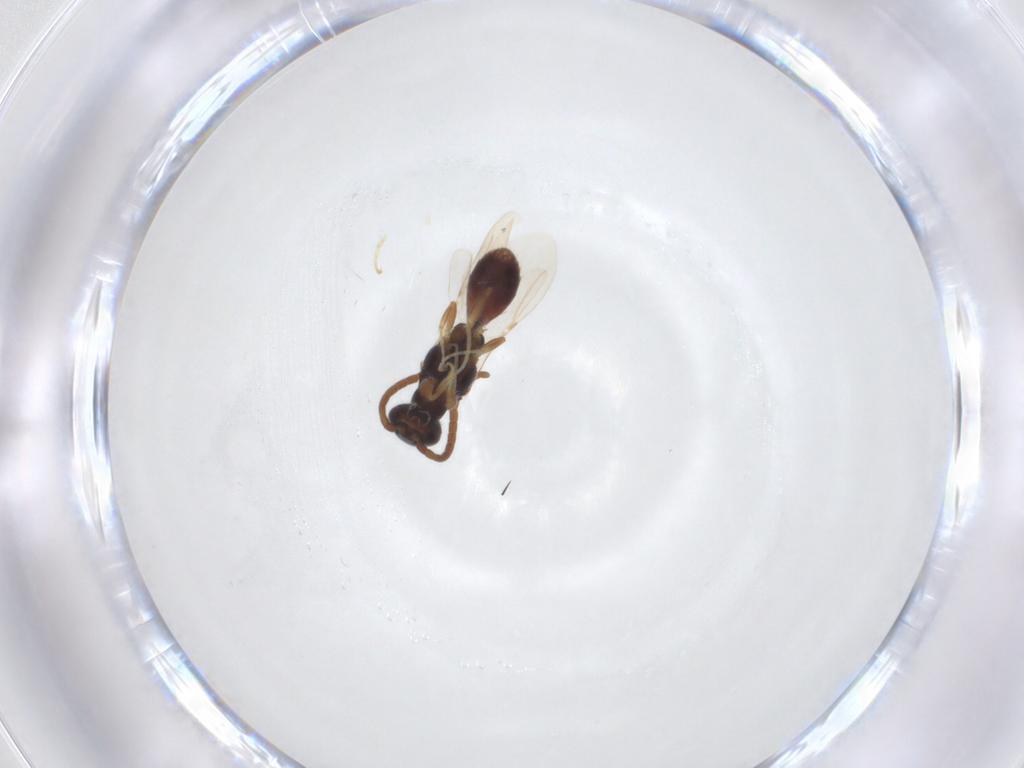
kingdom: Animalia
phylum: Arthropoda
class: Insecta
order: Hymenoptera
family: Bethylidae
